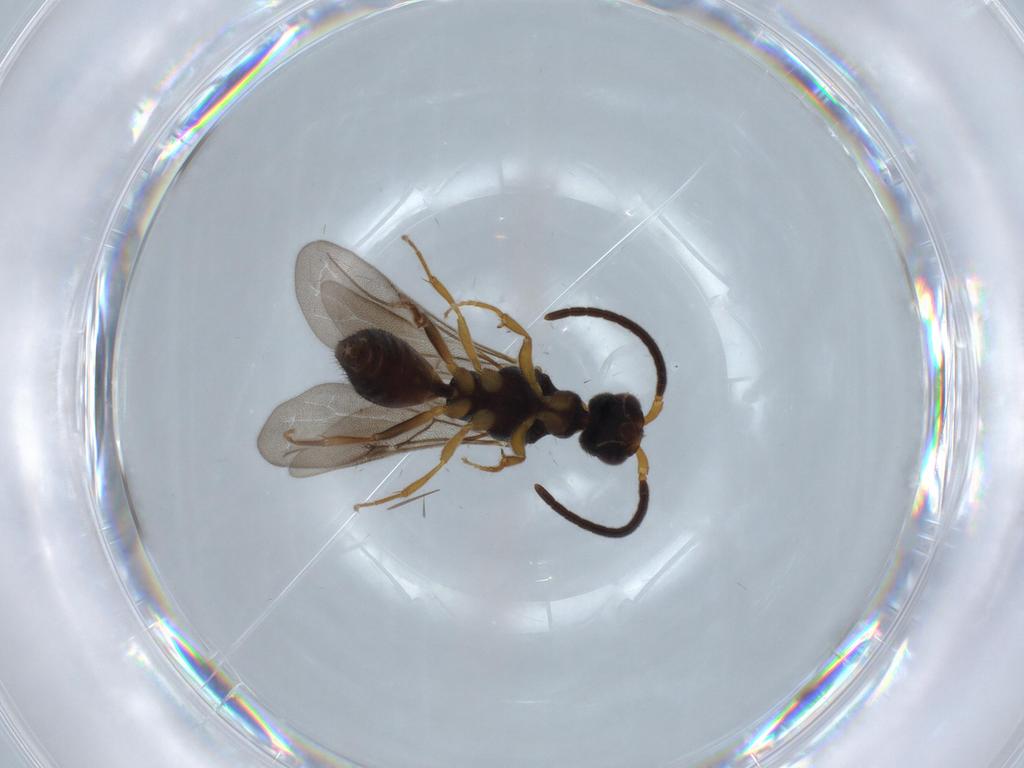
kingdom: Animalia
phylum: Arthropoda
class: Insecta
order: Hymenoptera
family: Bethylidae
